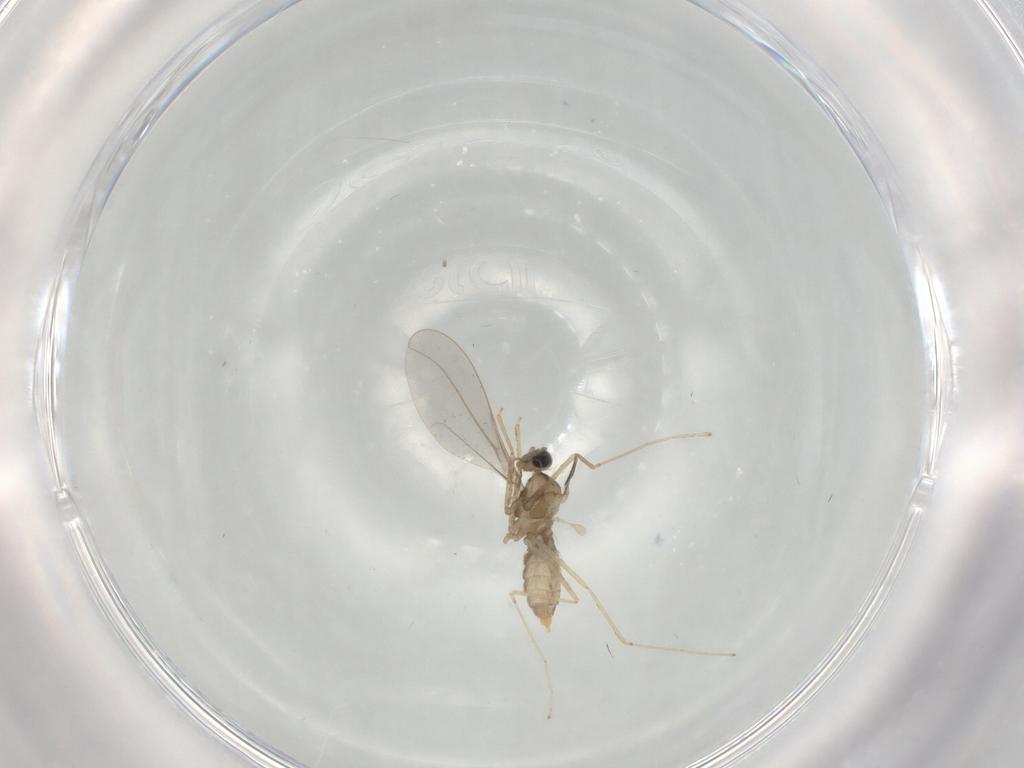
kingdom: Animalia
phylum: Arthropoda
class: Insecta
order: Diptera
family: Cecidomyiidae
